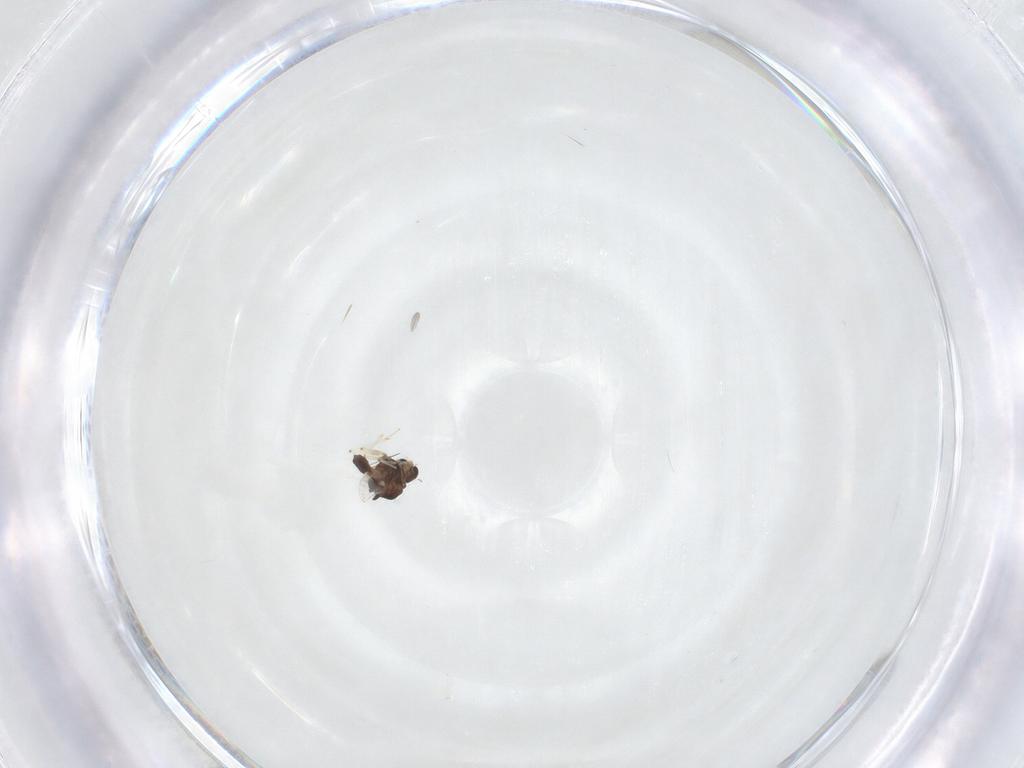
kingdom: Animalia
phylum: Arthropoda
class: Insecta
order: Diptera
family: Chironomidae
